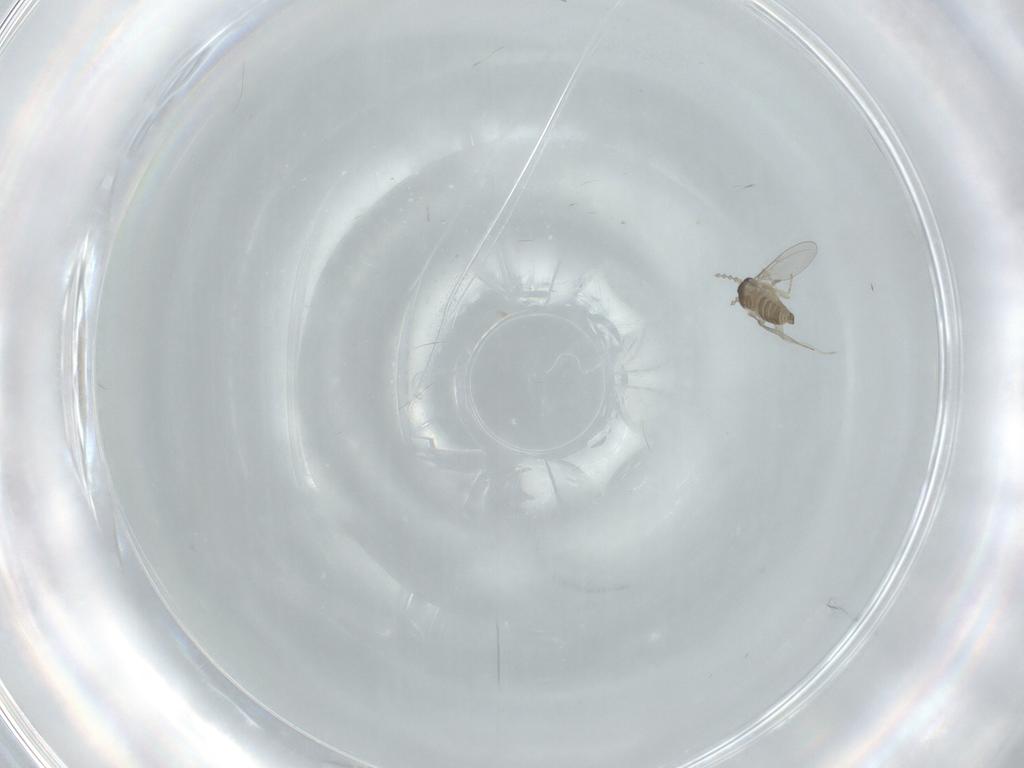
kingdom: Animalia
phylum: Arthropoda
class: Insecta
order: Diptera
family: Cecidomyiidae
